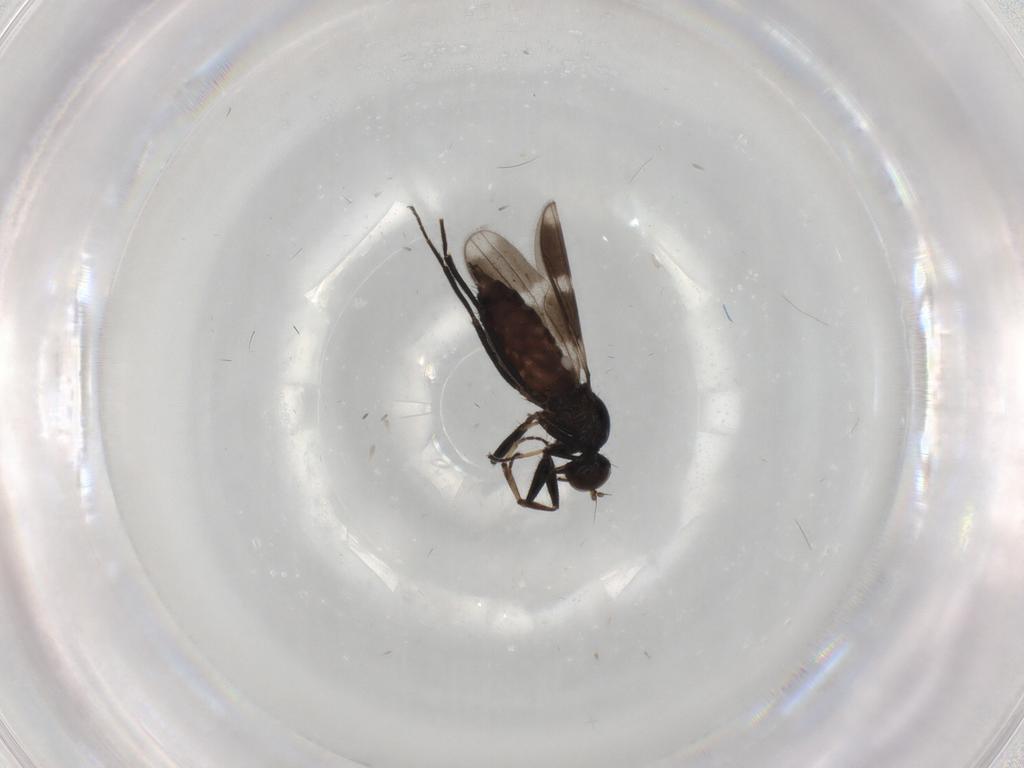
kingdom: Animalia
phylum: Arthropoda
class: Insecta
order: Diptera
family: Hybotidae
